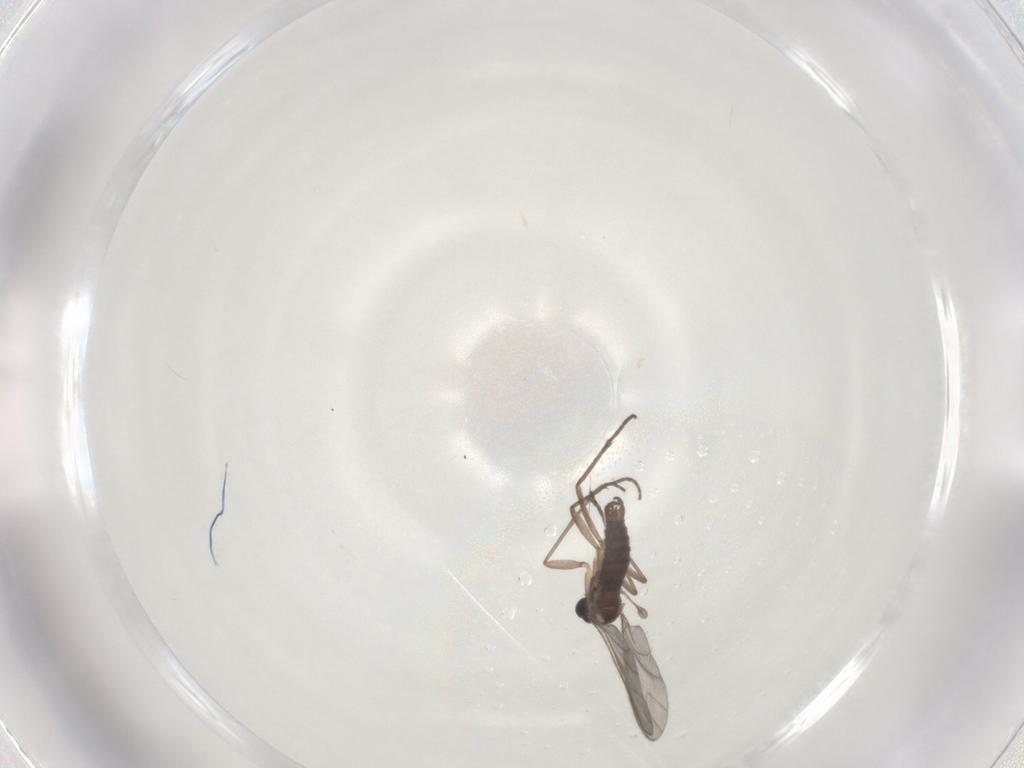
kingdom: Animalia
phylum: Arthropoda
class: Insecta
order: Diptera
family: Sciaridae
